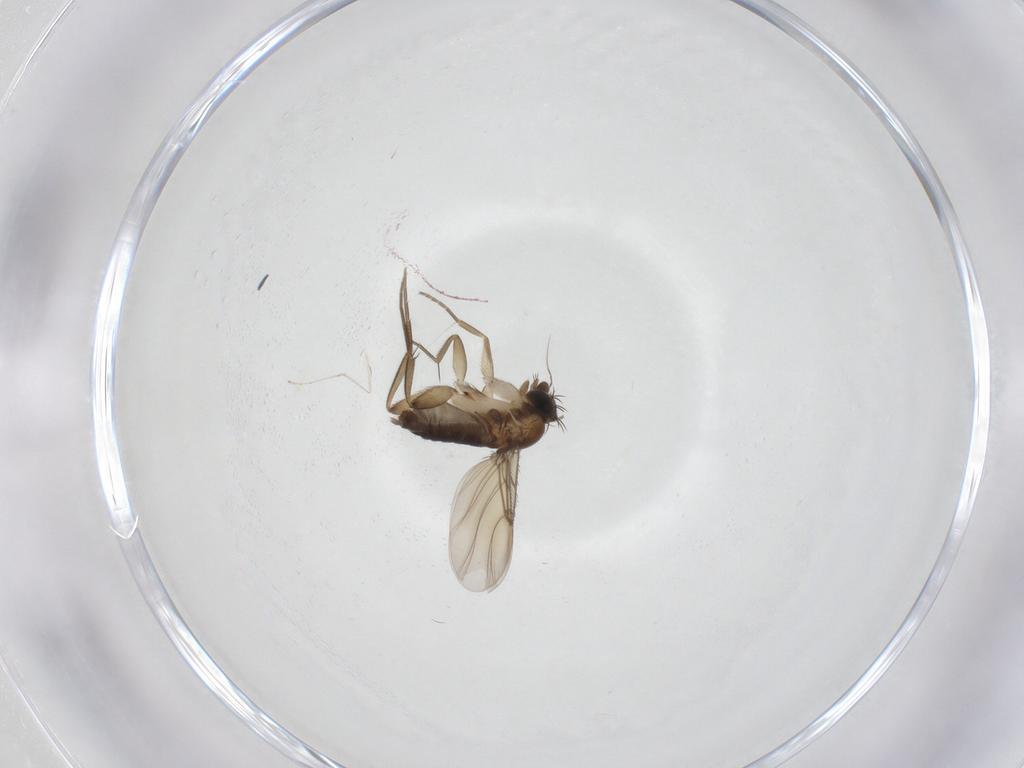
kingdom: Animalia
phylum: Arthropoda
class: Insecta
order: Diptera
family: Phoridae
